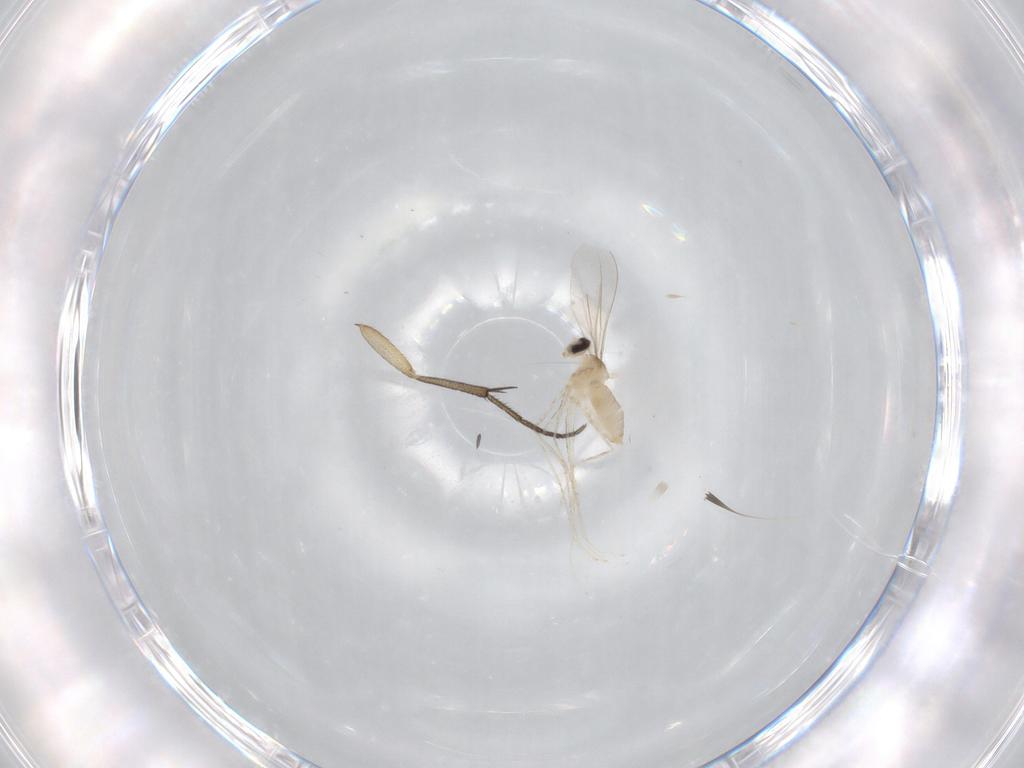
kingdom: Animalia
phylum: Arthropoda
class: Insecta
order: Diptera
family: Cecidomyiidae
